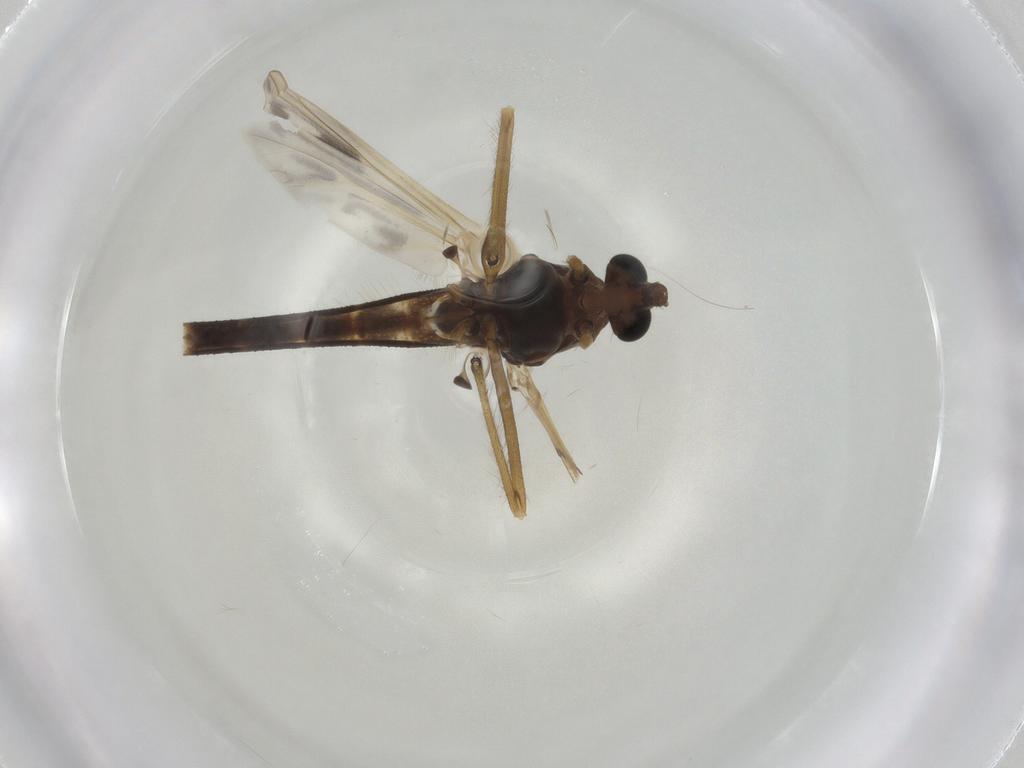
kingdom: Animalia
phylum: Arthropoda
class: Insecta
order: Diptera
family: Chironomidae
